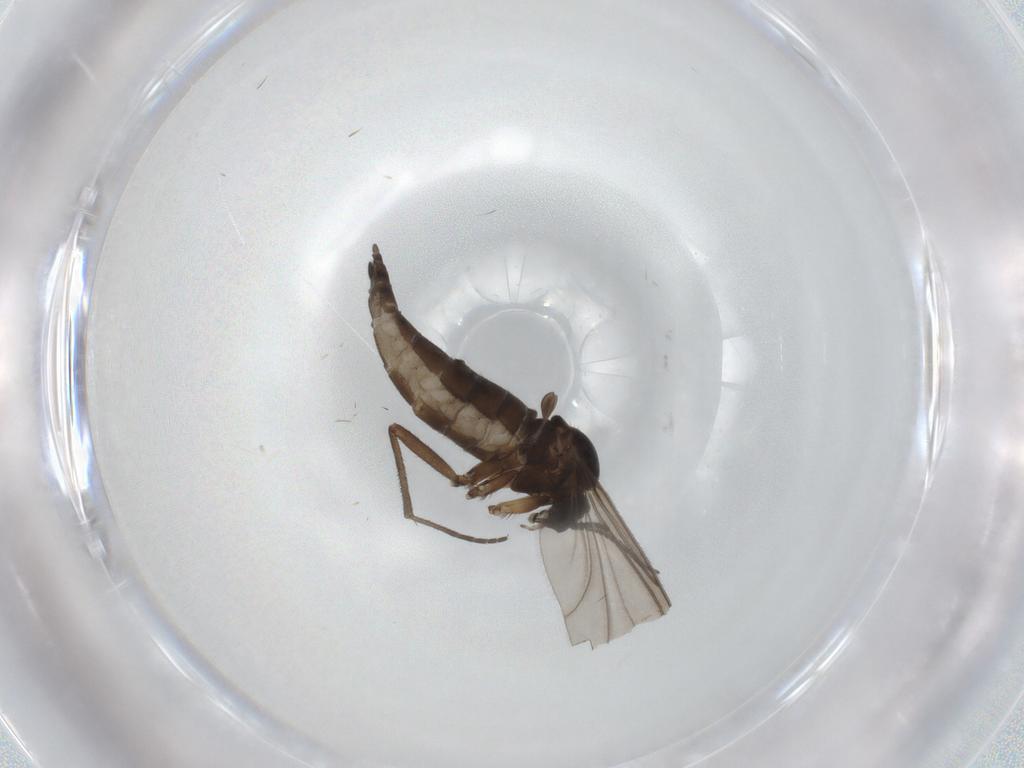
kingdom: Animalia
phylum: Arthropoda
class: Insecta
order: Diptera
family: Sciaridae
